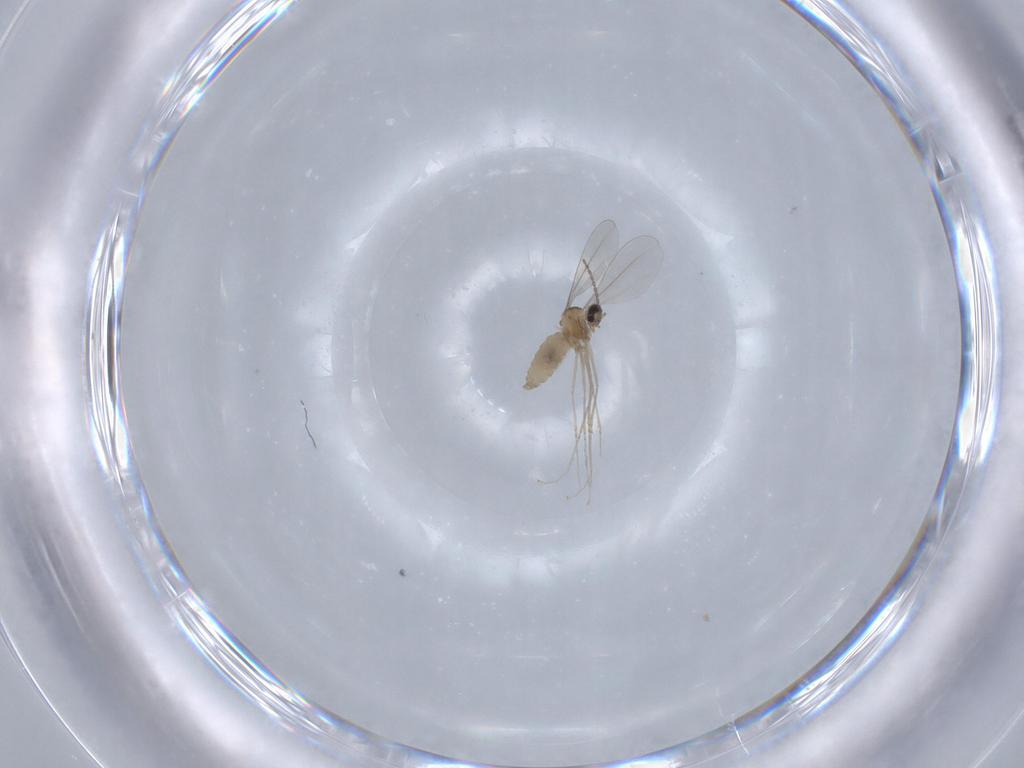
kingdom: Animalia
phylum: Arthropoda
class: Insecta
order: Diptera
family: Cecidomyiidae
